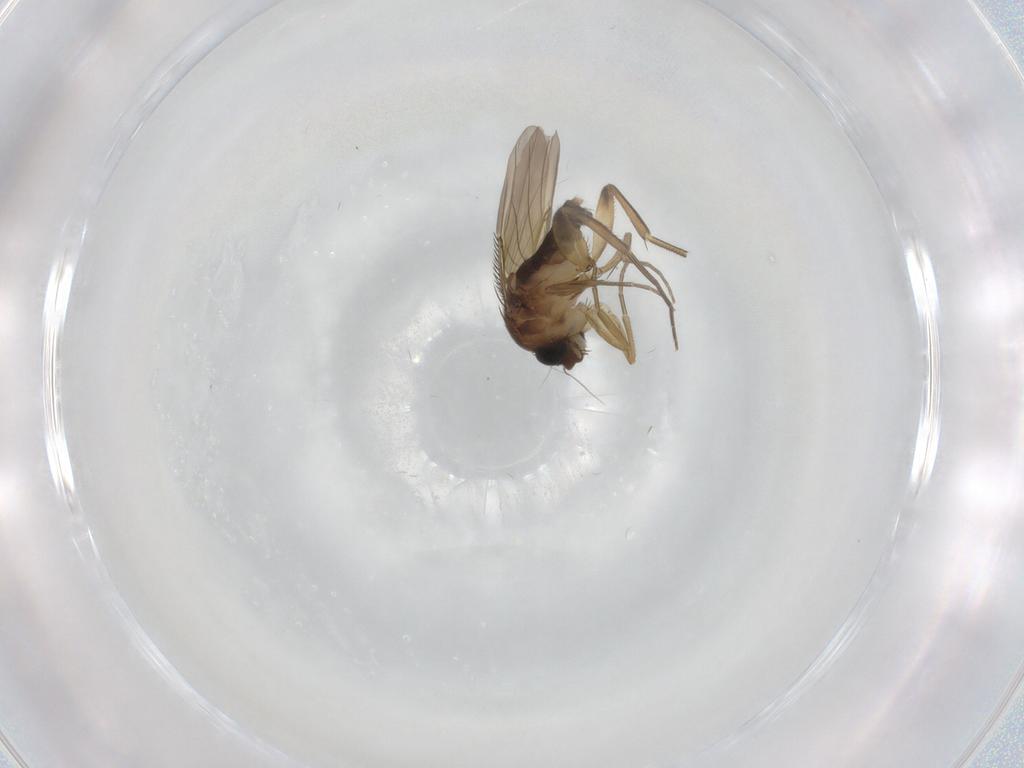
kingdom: Animalia
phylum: Arthropoda
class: Insecta
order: Diptera
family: Phoridae
